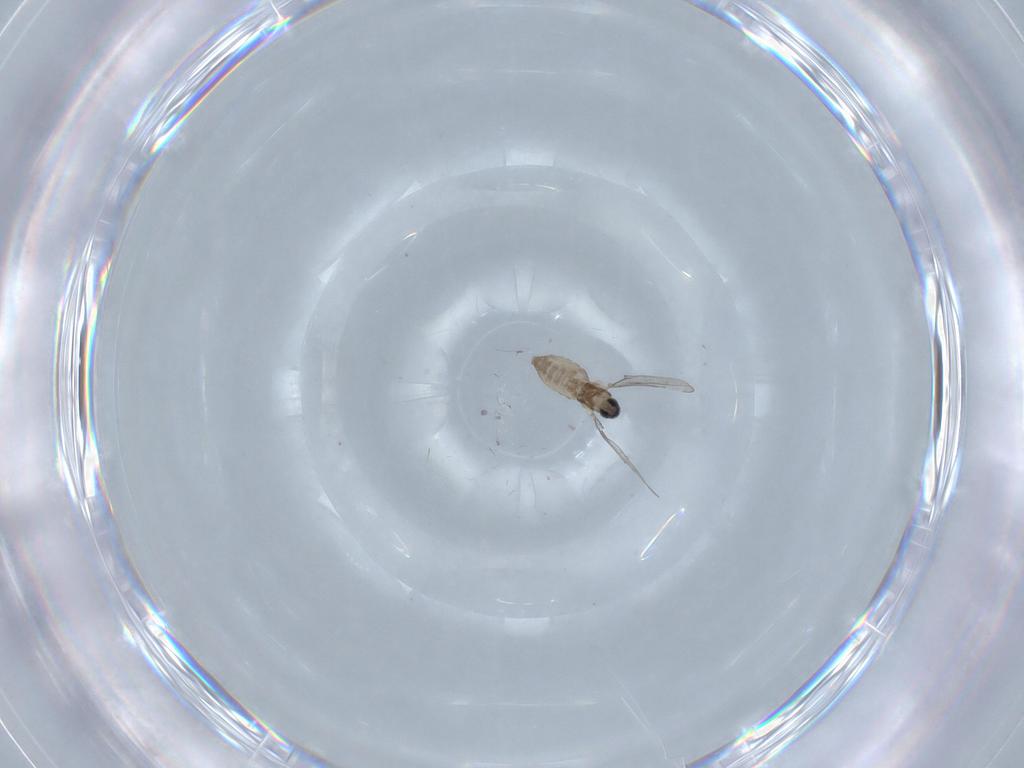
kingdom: Animalia
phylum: Arthropoda
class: Insecta
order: Diptera
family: Cecidomyiidae
